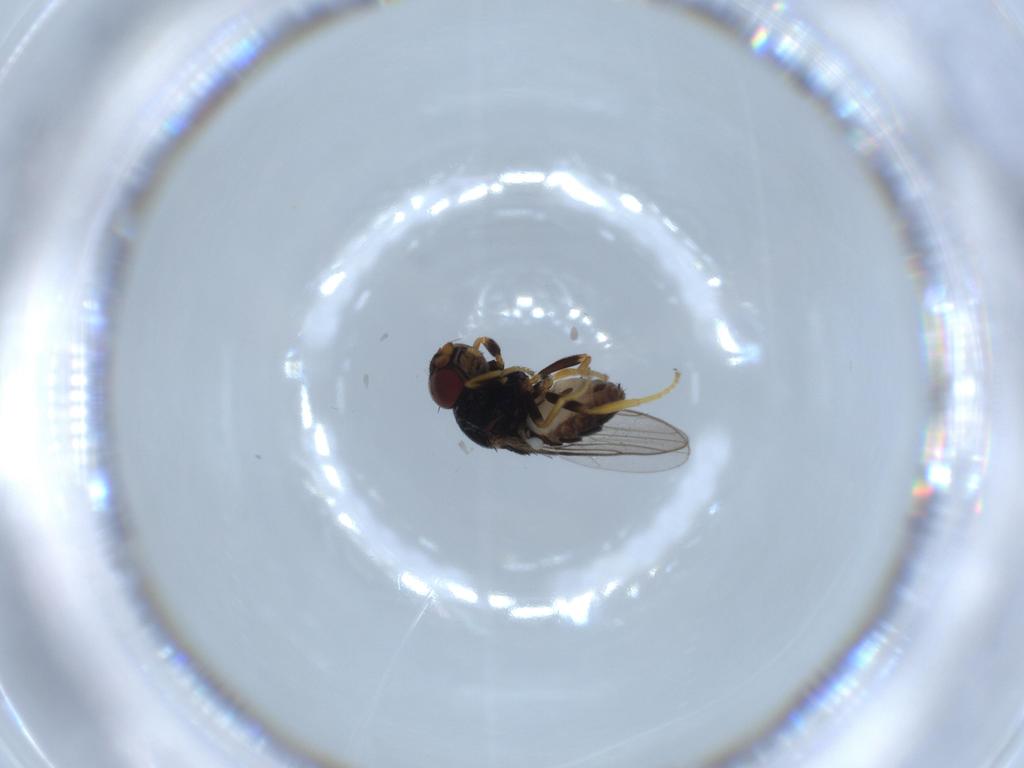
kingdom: Animalia
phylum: Arthropoda
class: Insecta
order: Diptera
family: Chloropidae
